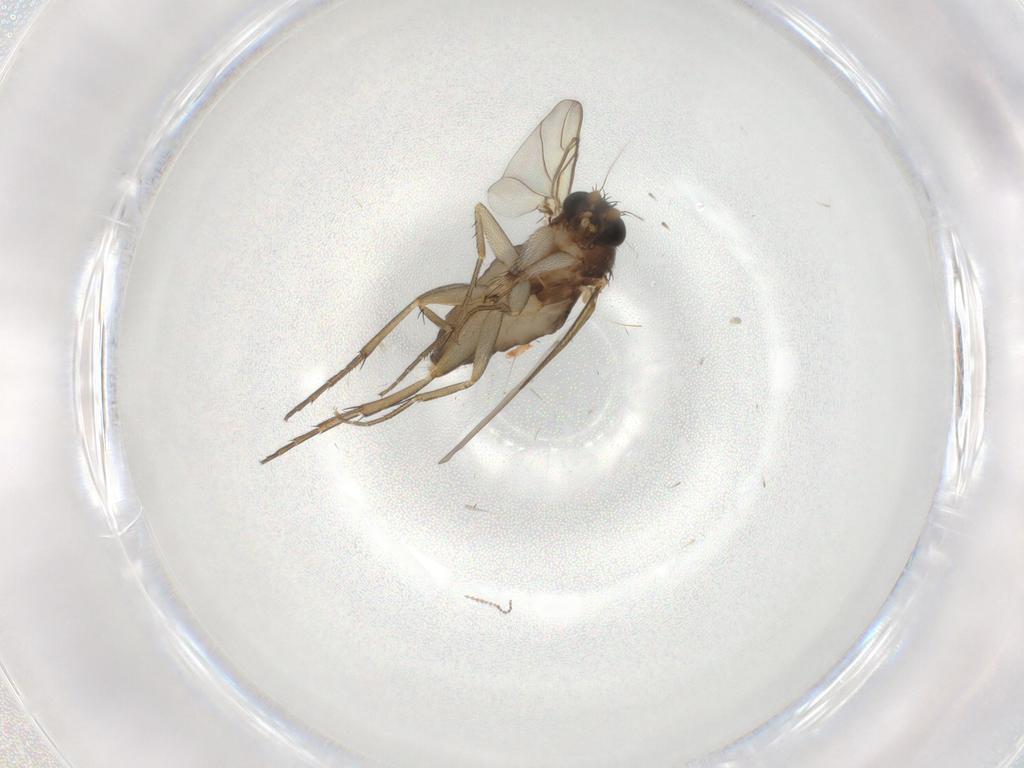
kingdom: Animalia
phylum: Arthropoda
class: Insecta
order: Diptera
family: Phoridae
